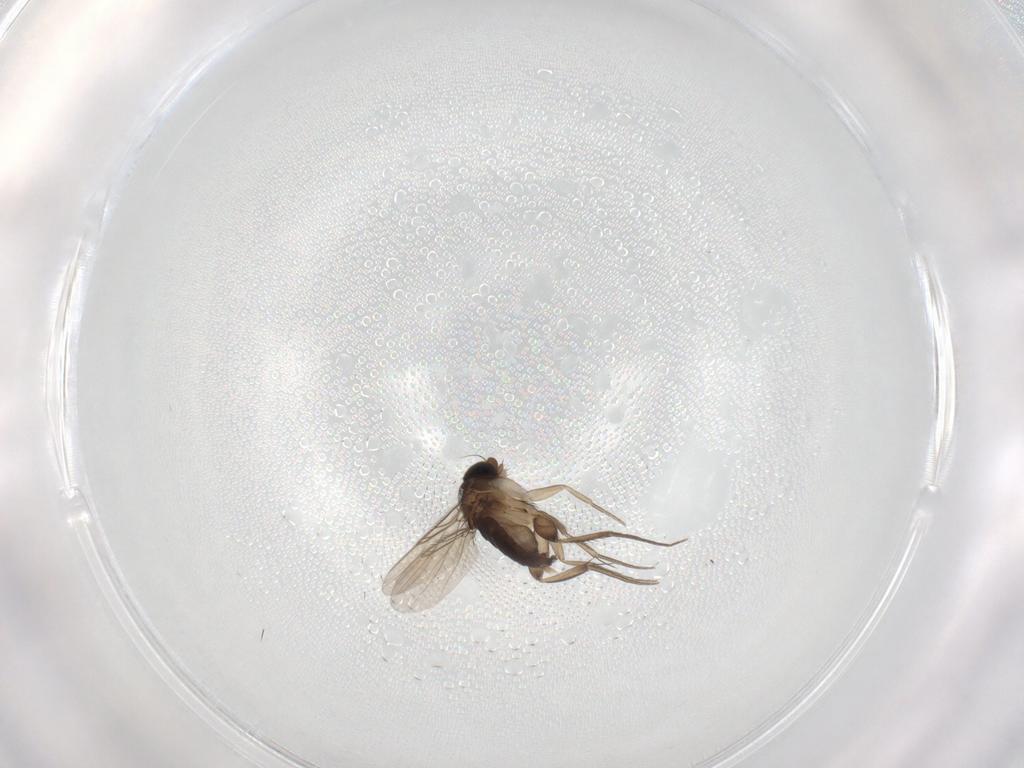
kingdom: Animalia
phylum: Arthropoda
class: Insecta
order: Diptera
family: Phoridae
